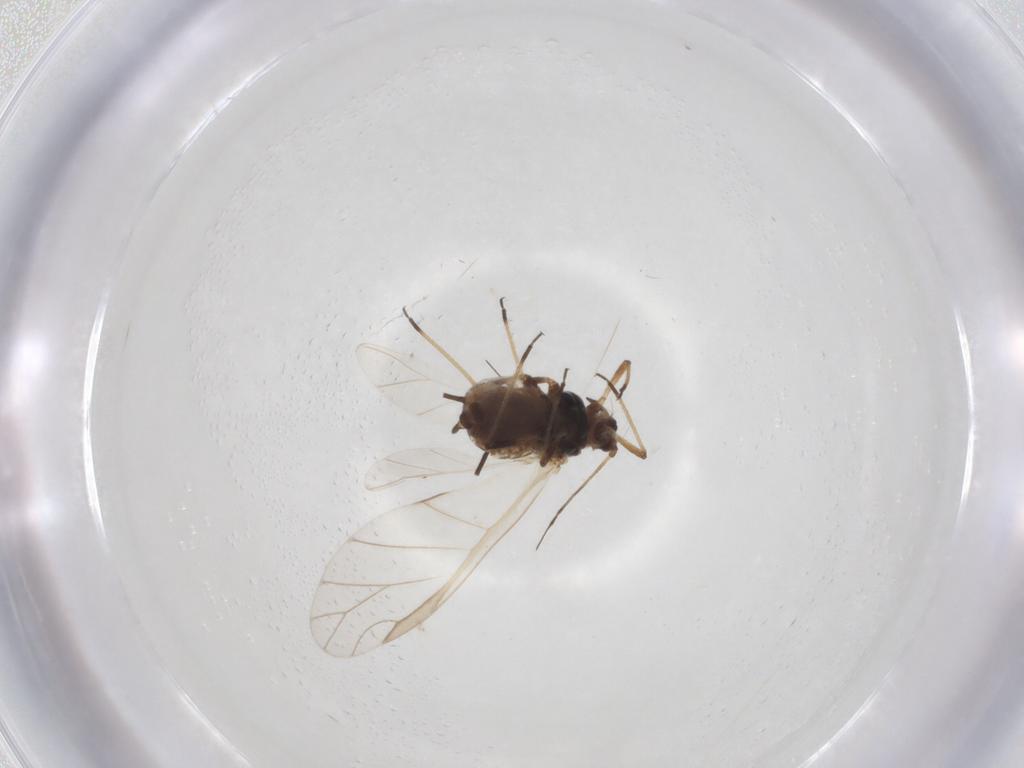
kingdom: Animalia
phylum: Arthropoda
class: Insecta
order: Hemiptera
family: Aphididae
